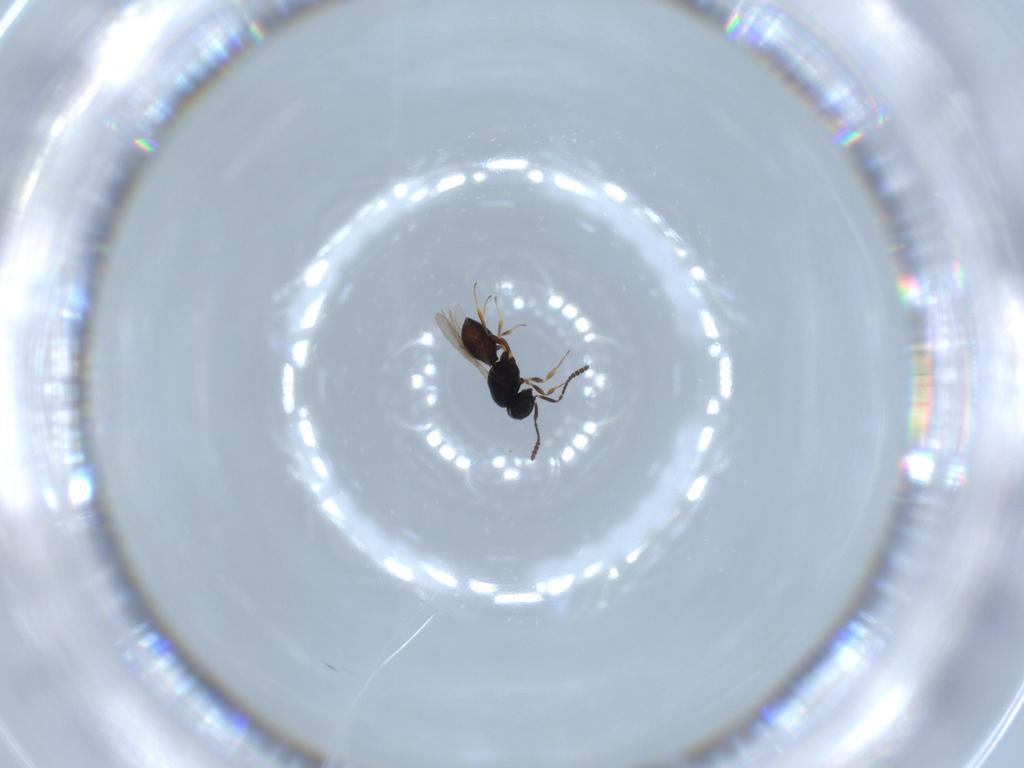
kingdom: Animalia
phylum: Arthropoda
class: Insecta
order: Hymenoptera
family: Scelionidae
